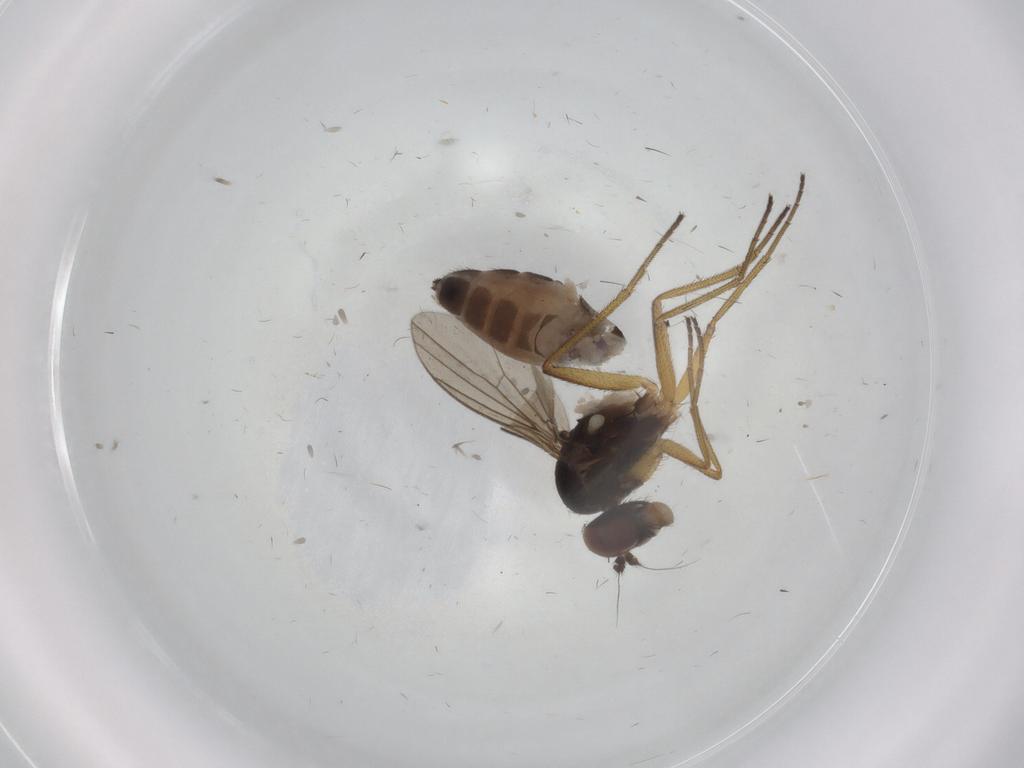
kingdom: Animalia
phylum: Arthropoda
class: Insecta
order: Diptera
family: Dolichopodidae
